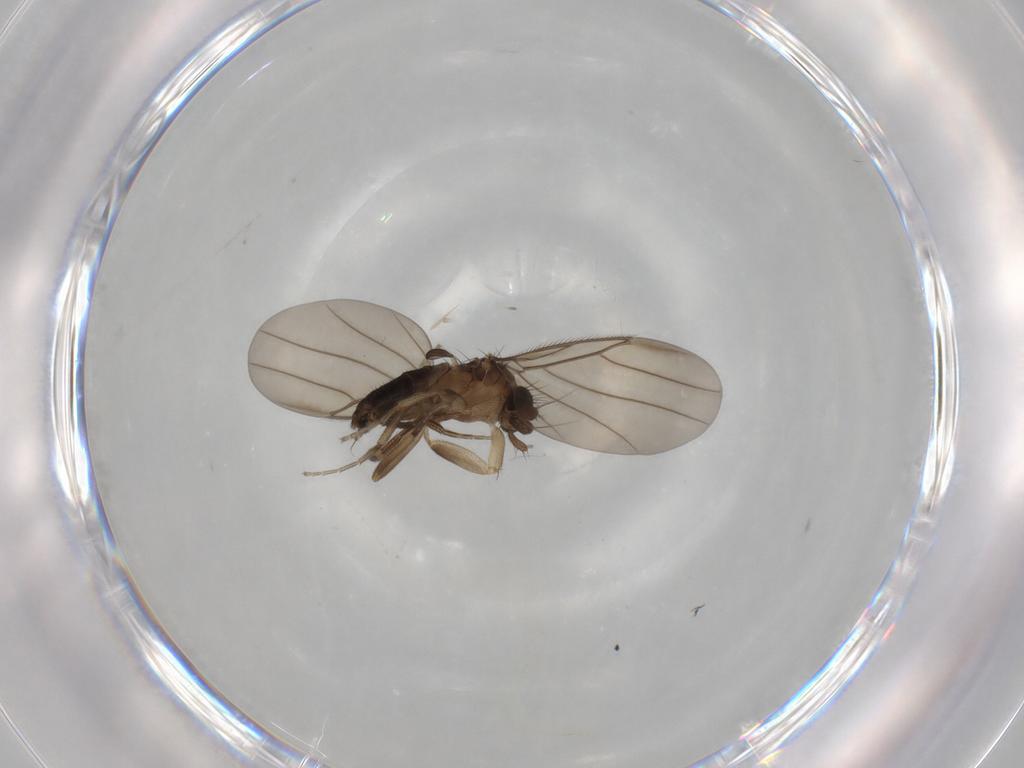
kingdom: Animalia
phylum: Arthropoda
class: Insecta
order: Diptera
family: Phoridae
